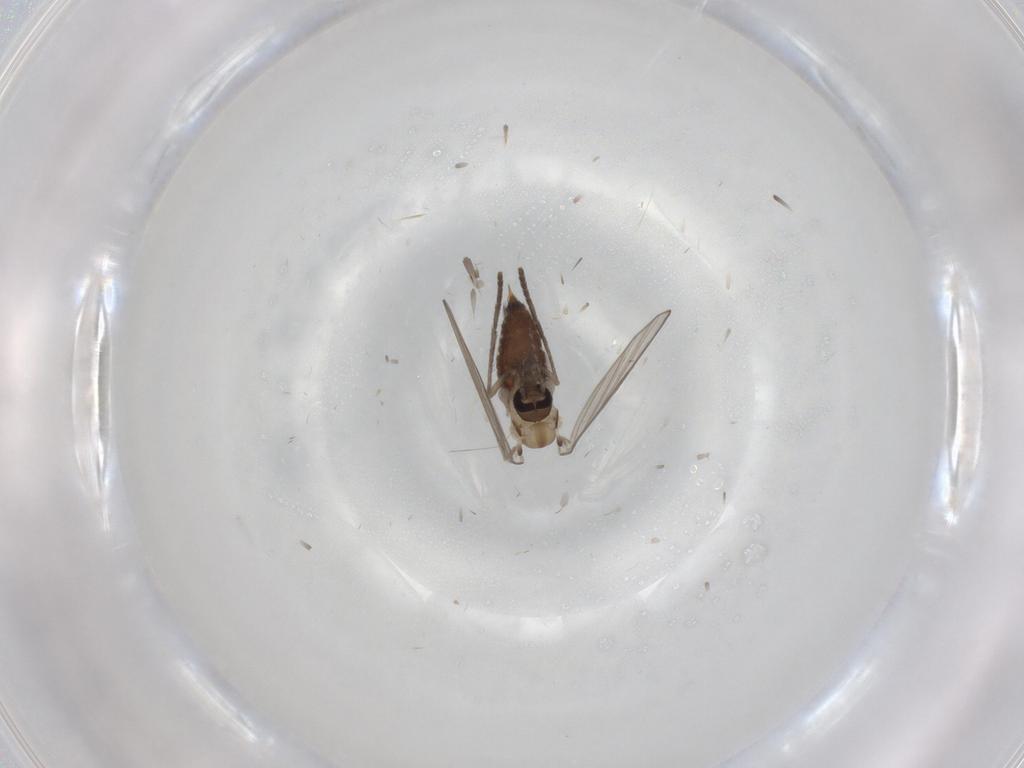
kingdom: Animalia
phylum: Arthropoda
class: Insecta
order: Diptera
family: Psychodidae
